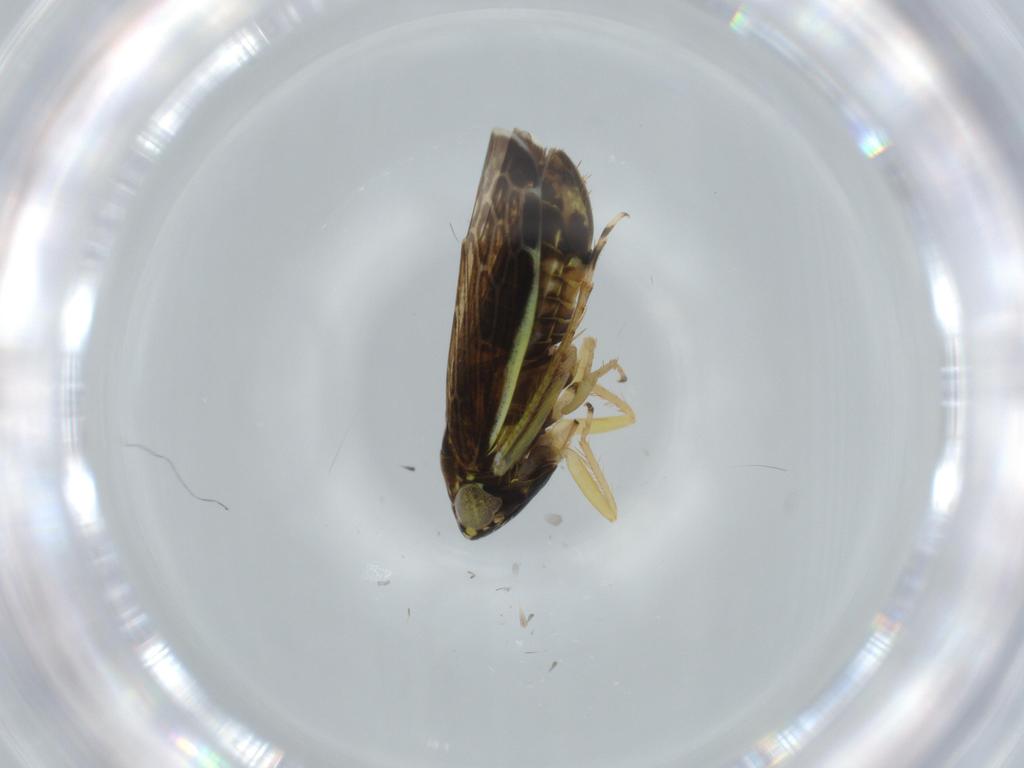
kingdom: Animalia
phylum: Arthropoda
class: Insecta
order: Hemiptera
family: Cicadellidae
